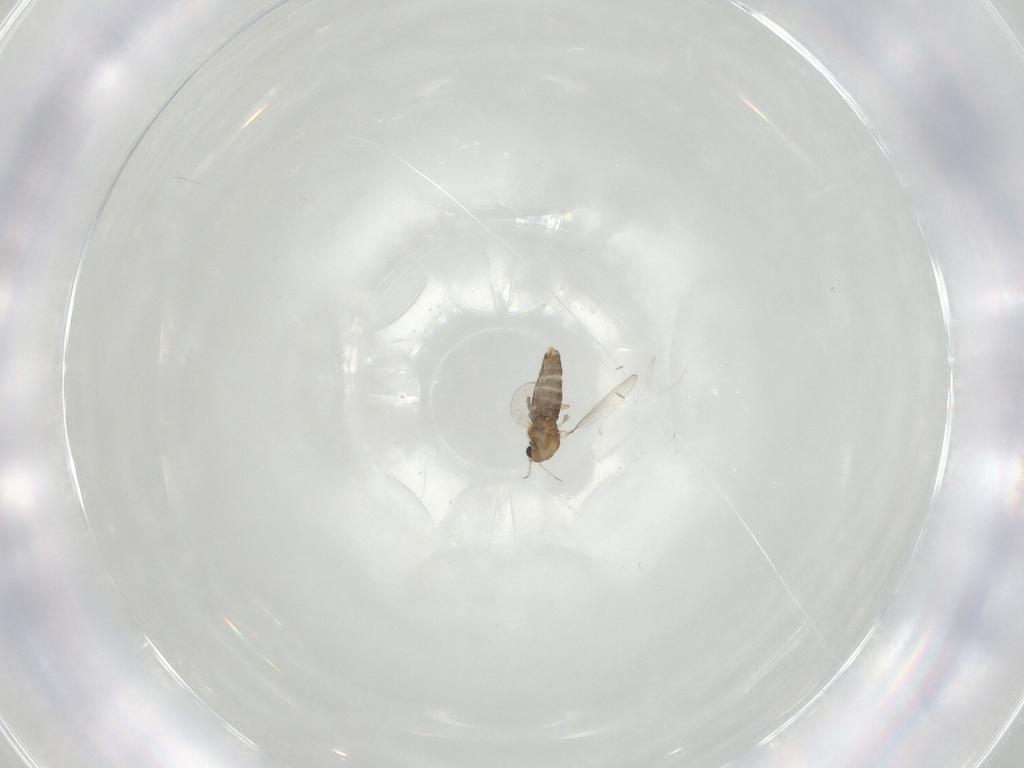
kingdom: Animalia
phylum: Arthropoda
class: Insecta
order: Diptera
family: Chironomidae
